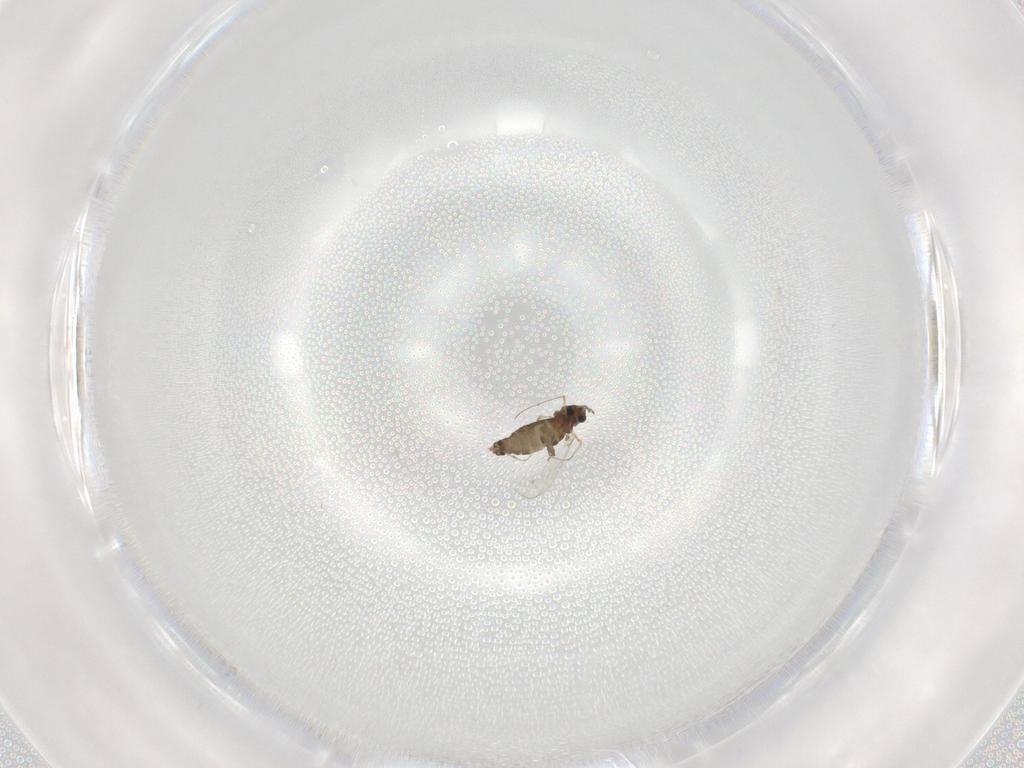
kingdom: Animalia
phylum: Arthropoda
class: Insecta
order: Diptera
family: Chironomidae
